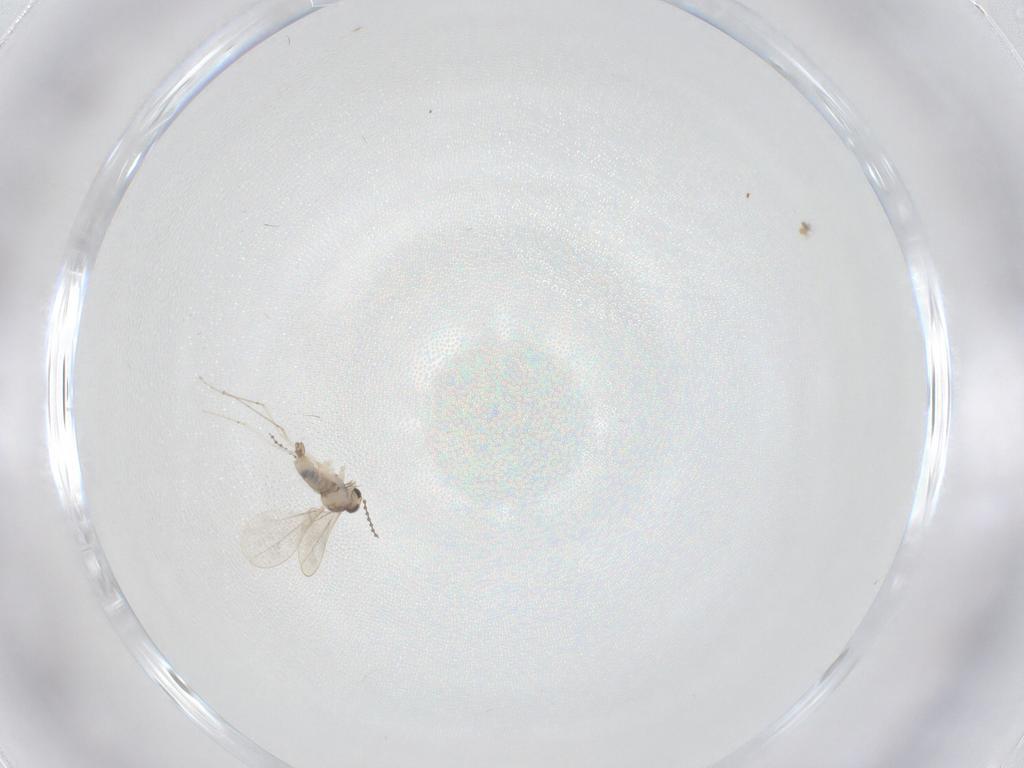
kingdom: Animalia
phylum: Arthropoda
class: Insecta
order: Diptera
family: Cecidomyiidae
